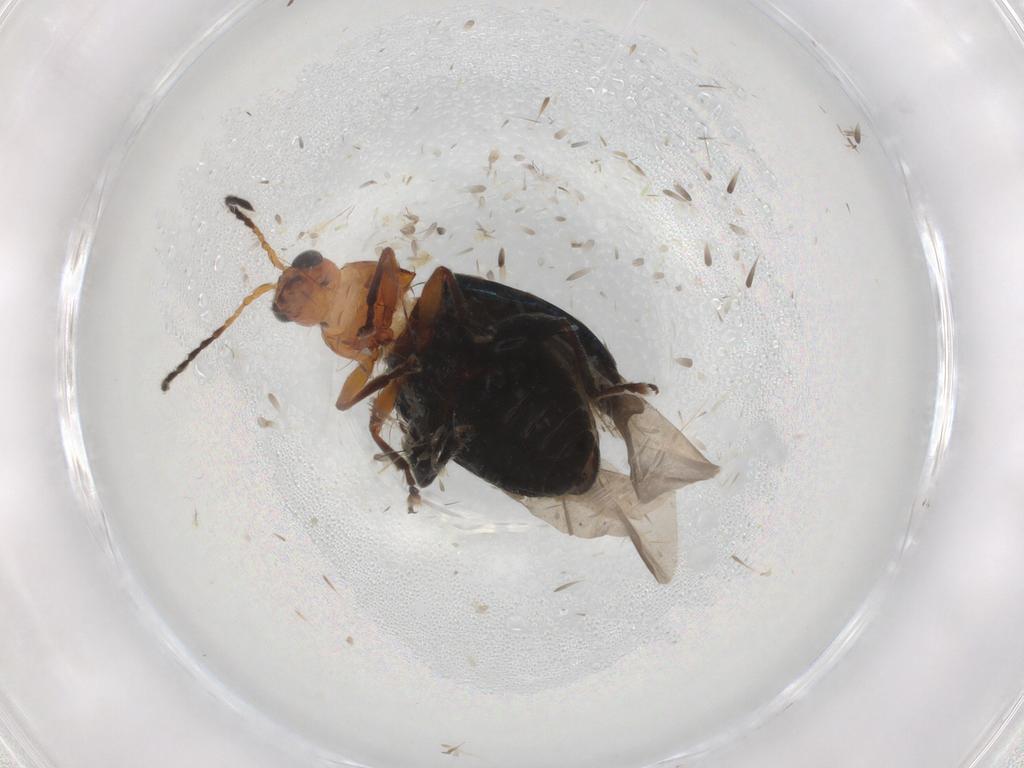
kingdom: Animalia
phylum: Arthropoda
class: Insecta
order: Coleoptera
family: Chrysomelidae
